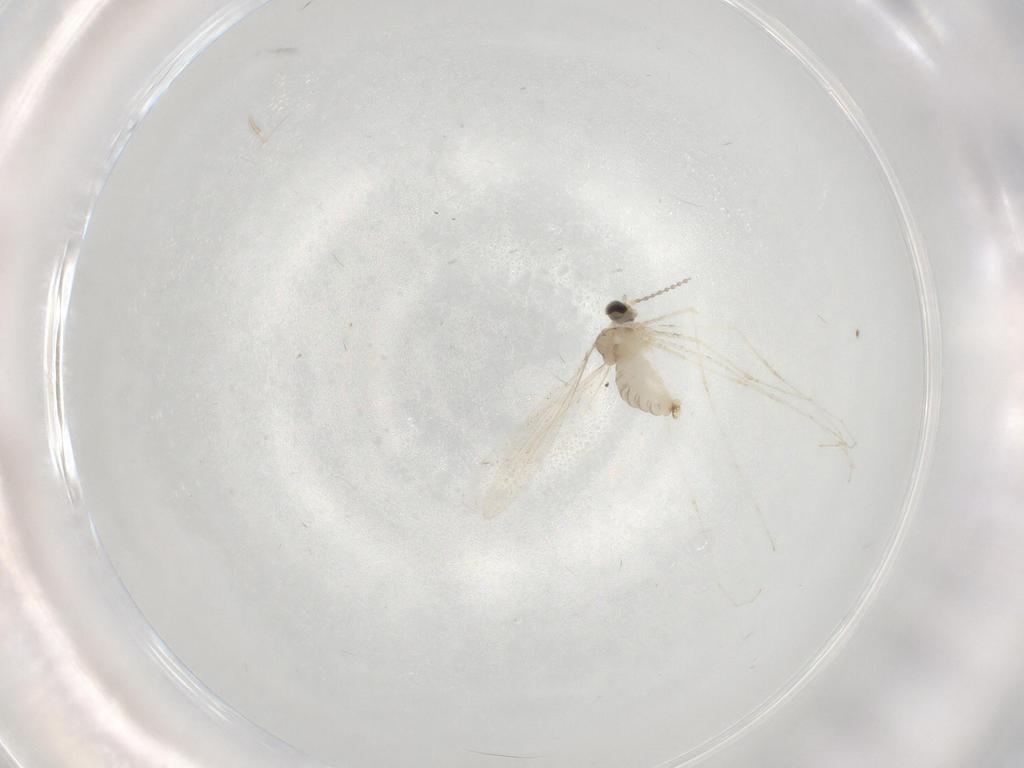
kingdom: Animalia
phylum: Arthropoda
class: Insecta
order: Diptera
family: Cecidomyiidae
